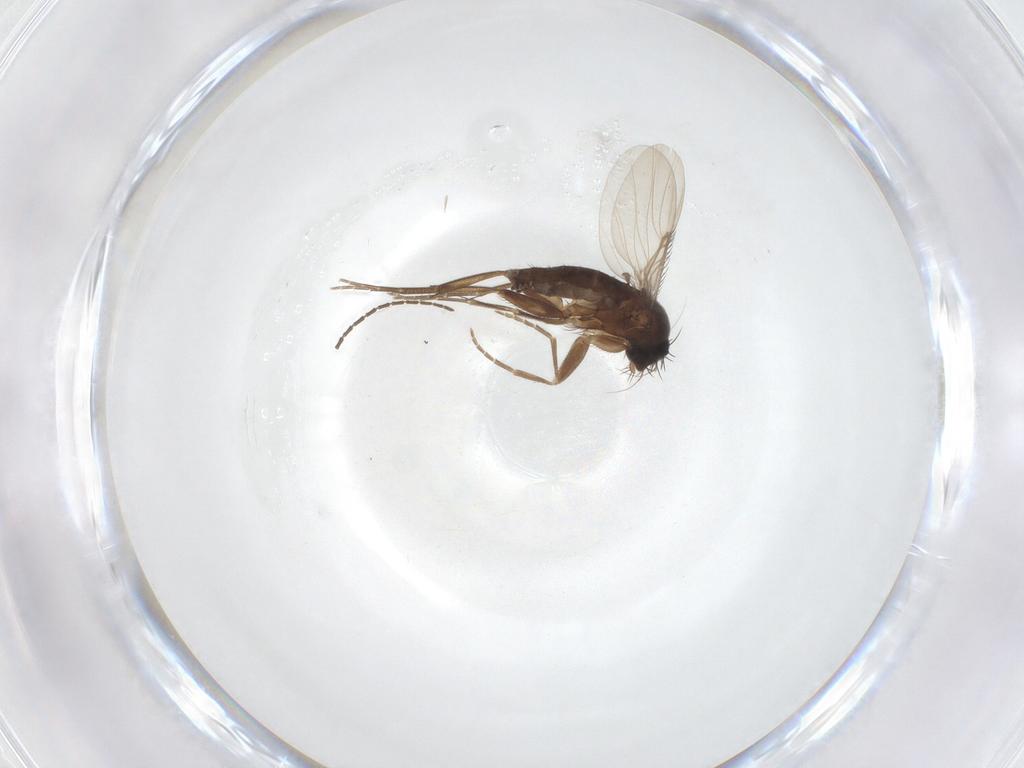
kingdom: Animalia
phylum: Arthropoda
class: Insecta
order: Diptera
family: Phoridae
